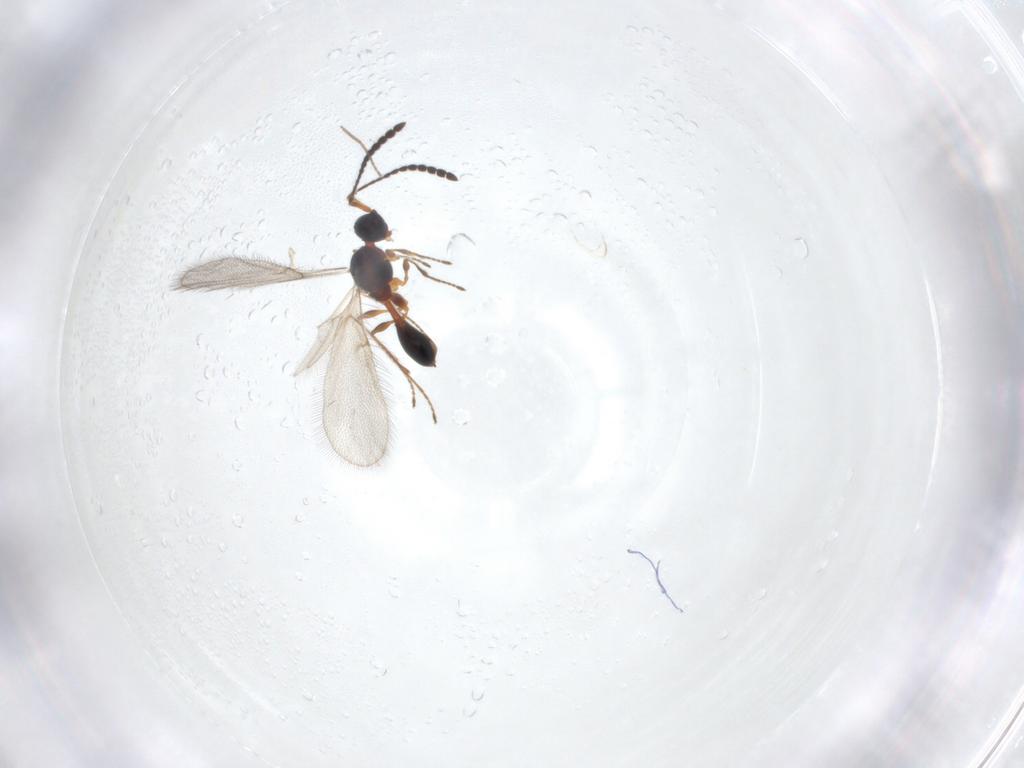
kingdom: Animalia
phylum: Arthropoda
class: Insecta
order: Hymenoptera
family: Diapriidae
